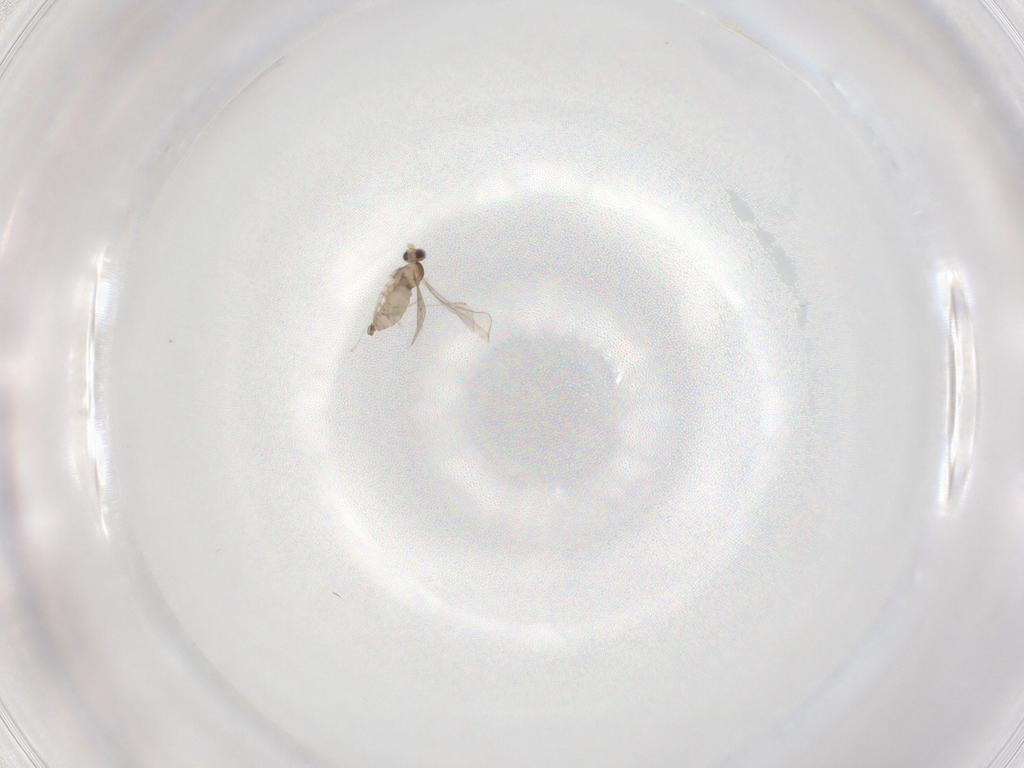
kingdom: Animalia
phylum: Arthropoda
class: Insecta
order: Diptera
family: Cecidomyiidae
